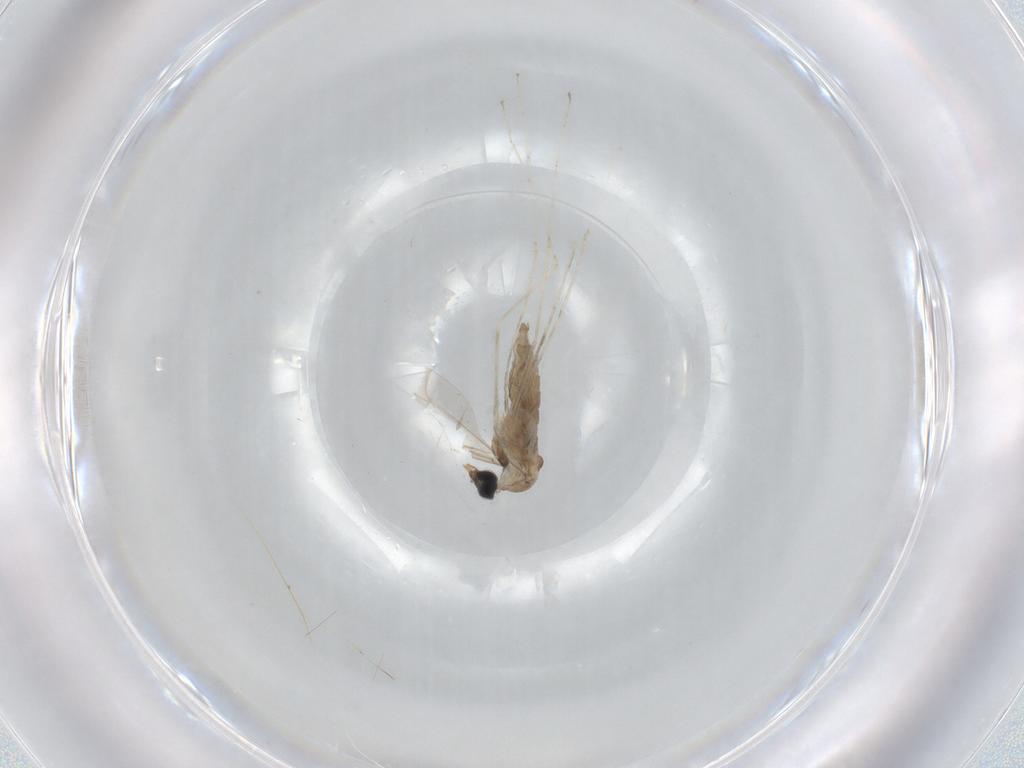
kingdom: Animalia
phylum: Arthropoda
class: Insecta
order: Diptera
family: Cecidomyiidae
